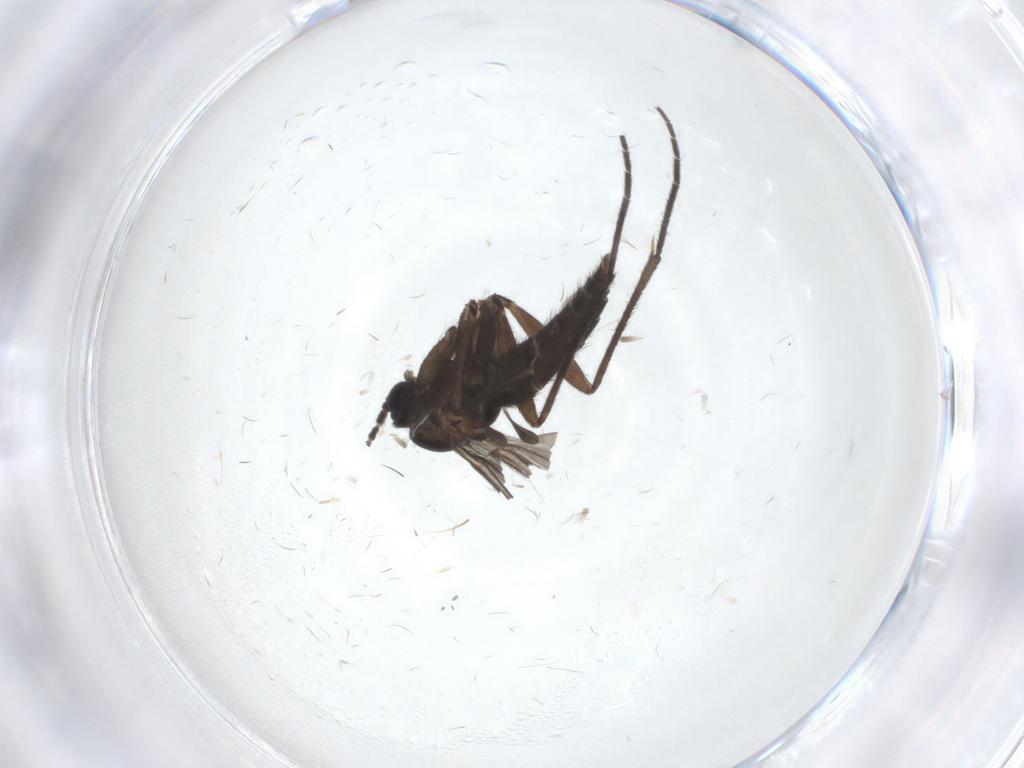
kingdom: Animalia
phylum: Arthropoda
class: Insecta
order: Diptera
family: Sciaridae
